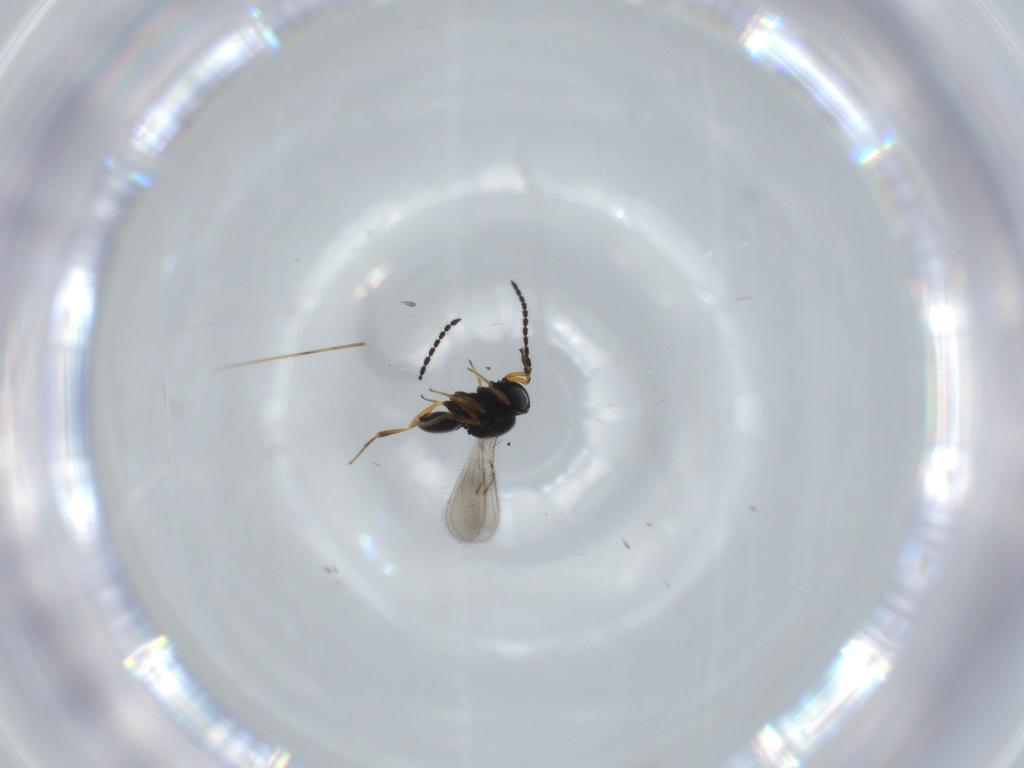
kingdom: Animalia
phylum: Arthropoda
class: Insecta
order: Hymenoptera
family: Scelionidae
